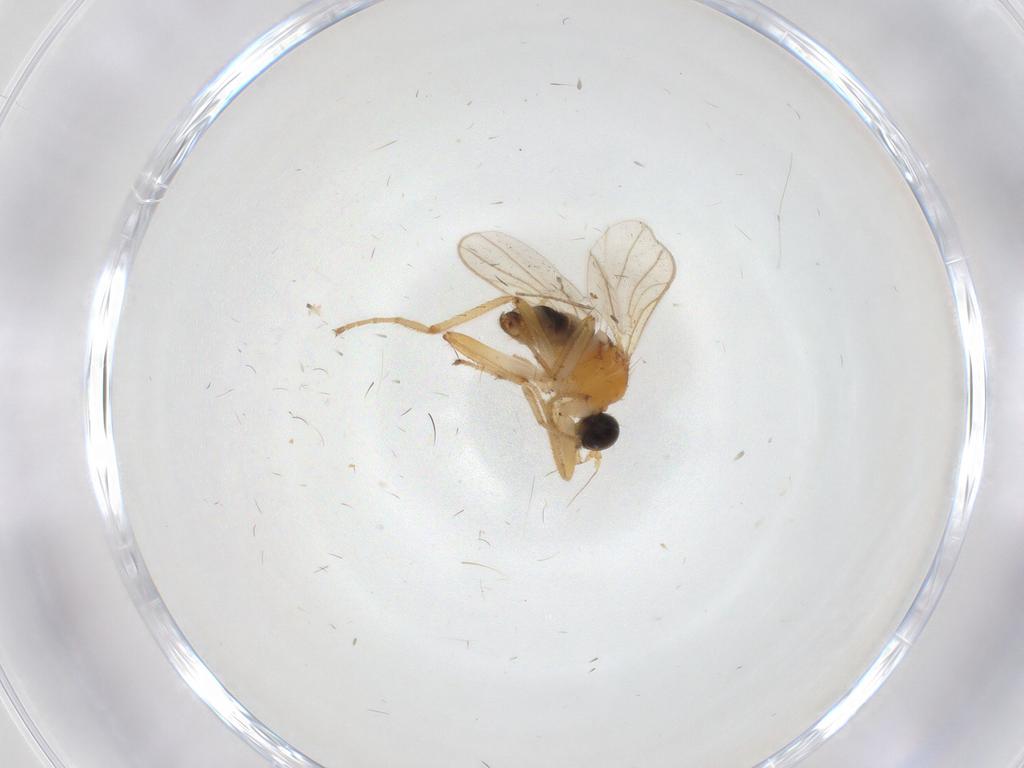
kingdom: Animalia
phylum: Arthropoda
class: Insecta
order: Diptera
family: Hybotidae
